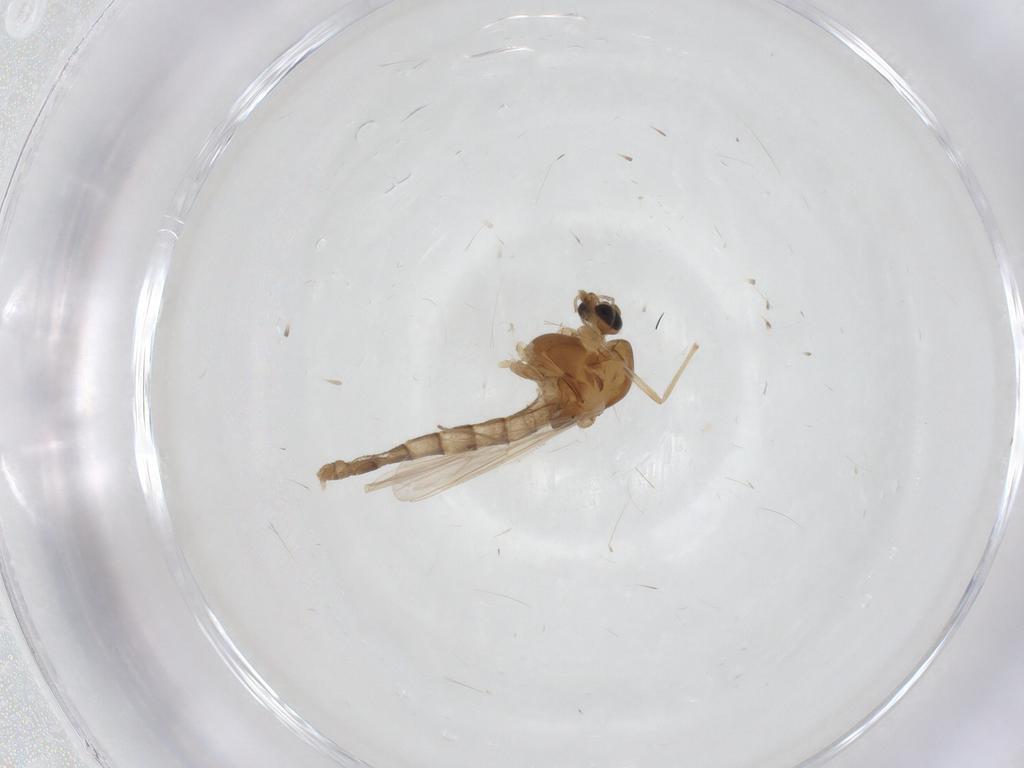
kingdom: Animalia
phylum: Arthropoda
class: Insecta
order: Diptera
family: Chironomidae
